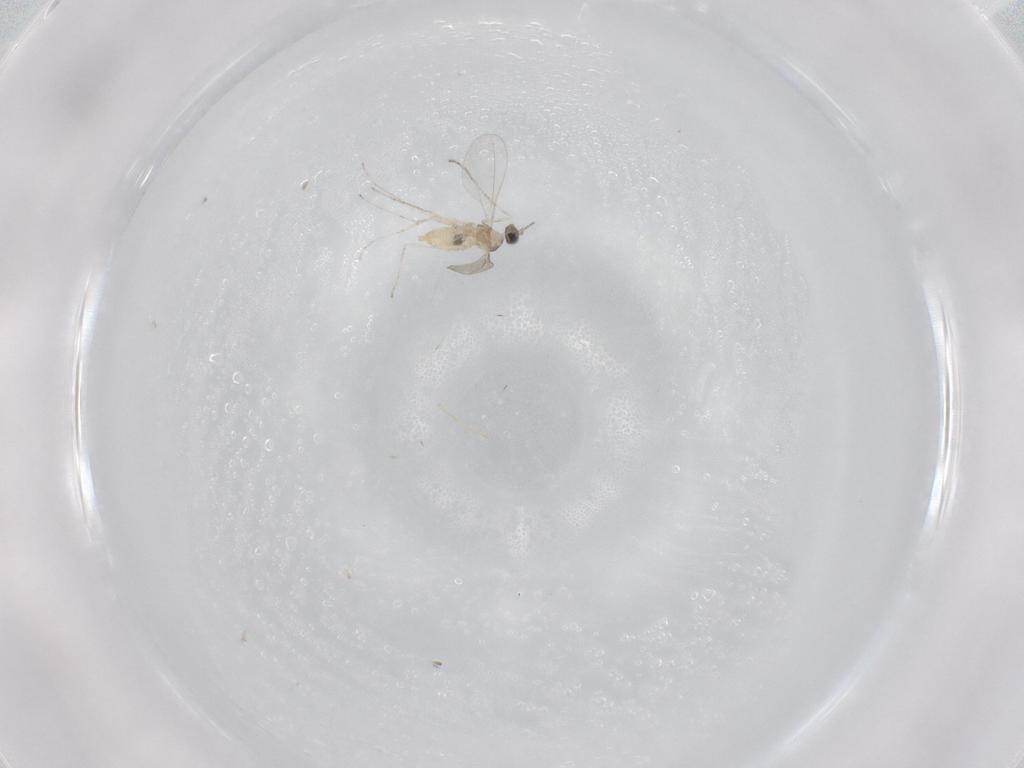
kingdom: Animalia
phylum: Arthropoda
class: Insecta
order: Diptera
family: Cecidomyiidae
